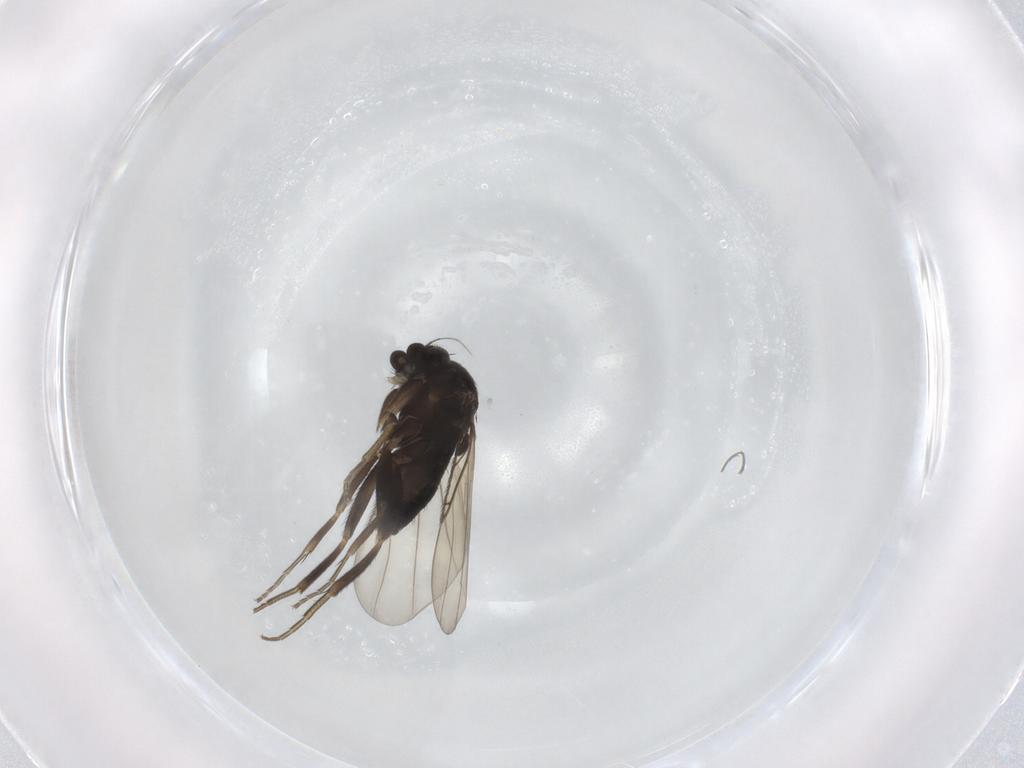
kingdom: Animalia
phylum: Arthropoda
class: Insecta
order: Diptera
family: Phoridae
